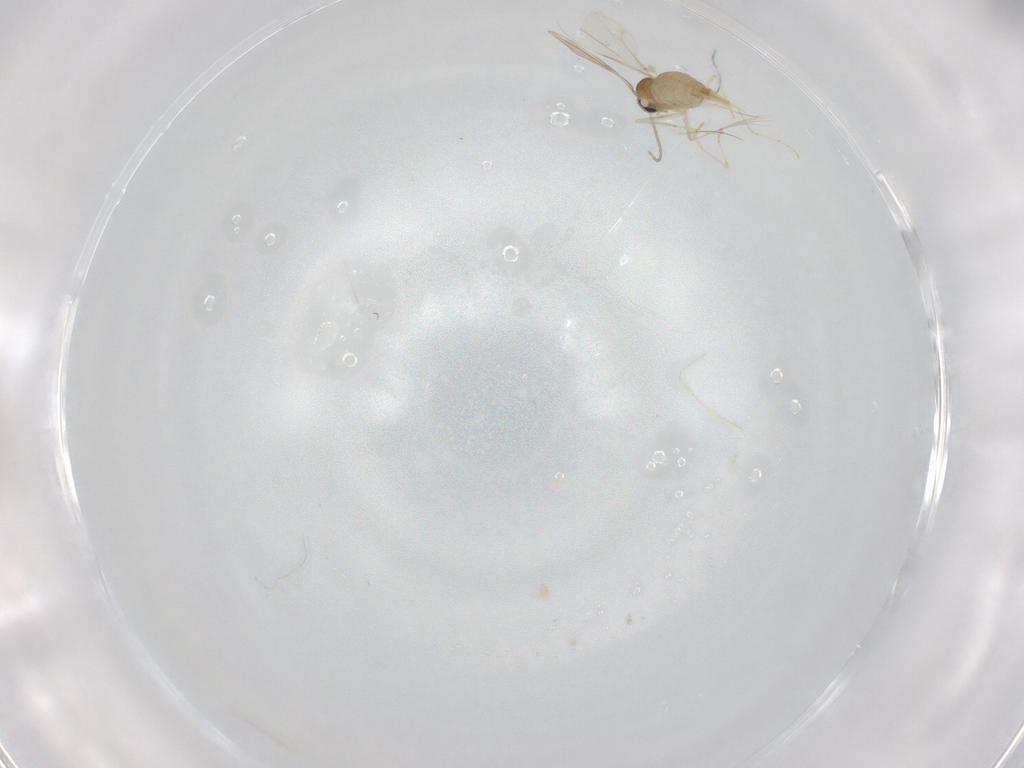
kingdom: Animalia
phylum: Arthropoda
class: Insecta
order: Diptera
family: Cecidomyiidae
